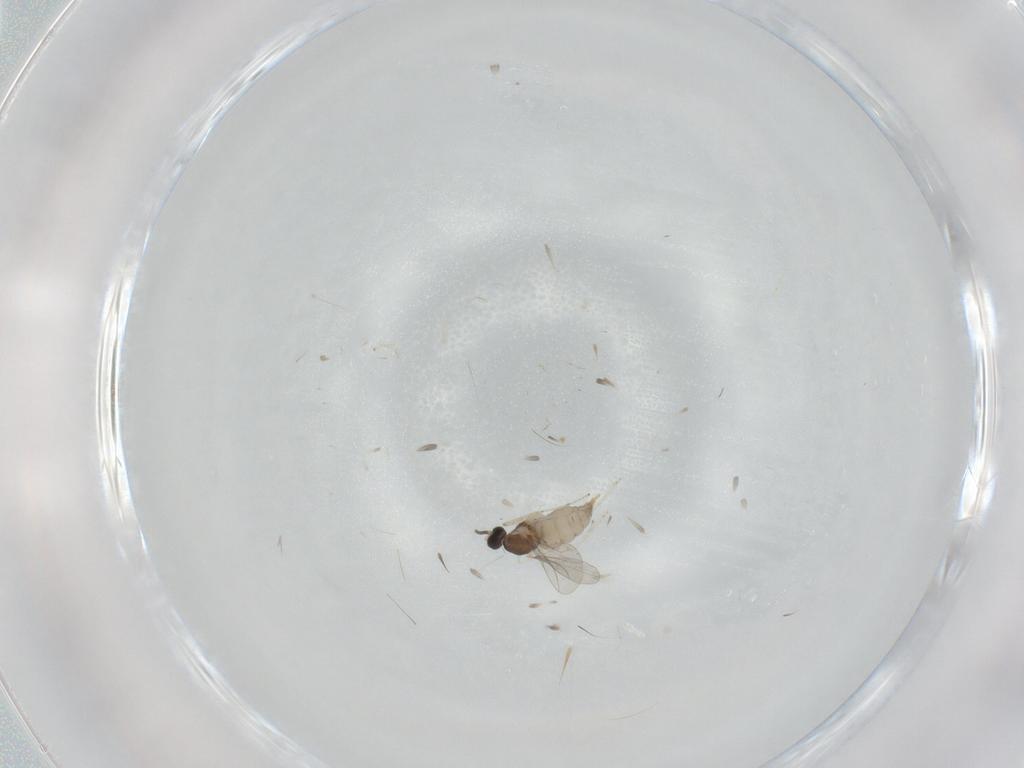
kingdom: Animalia
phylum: Arthropoda
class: Insecta
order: Diptera
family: Cecidomyiidae
